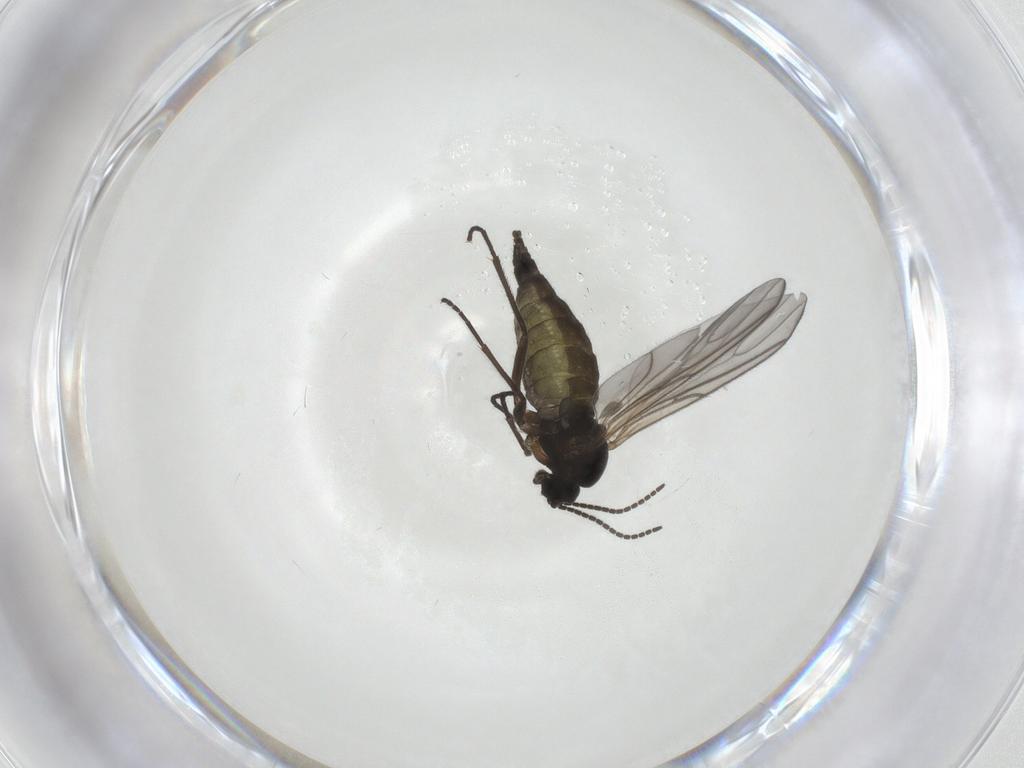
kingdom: Animalia
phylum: Arthropoda
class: Insecta
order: Diptera
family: Sciaridae
